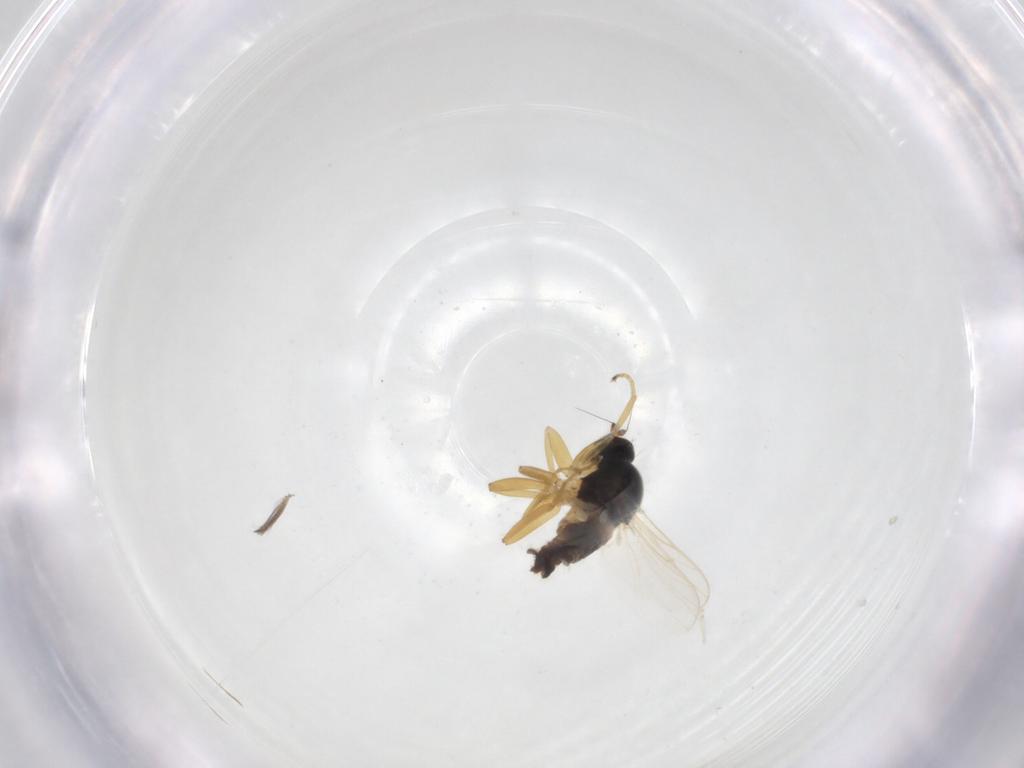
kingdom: Animalia
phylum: Arthropoda
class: Insecta
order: Diptera
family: Hybotidae
